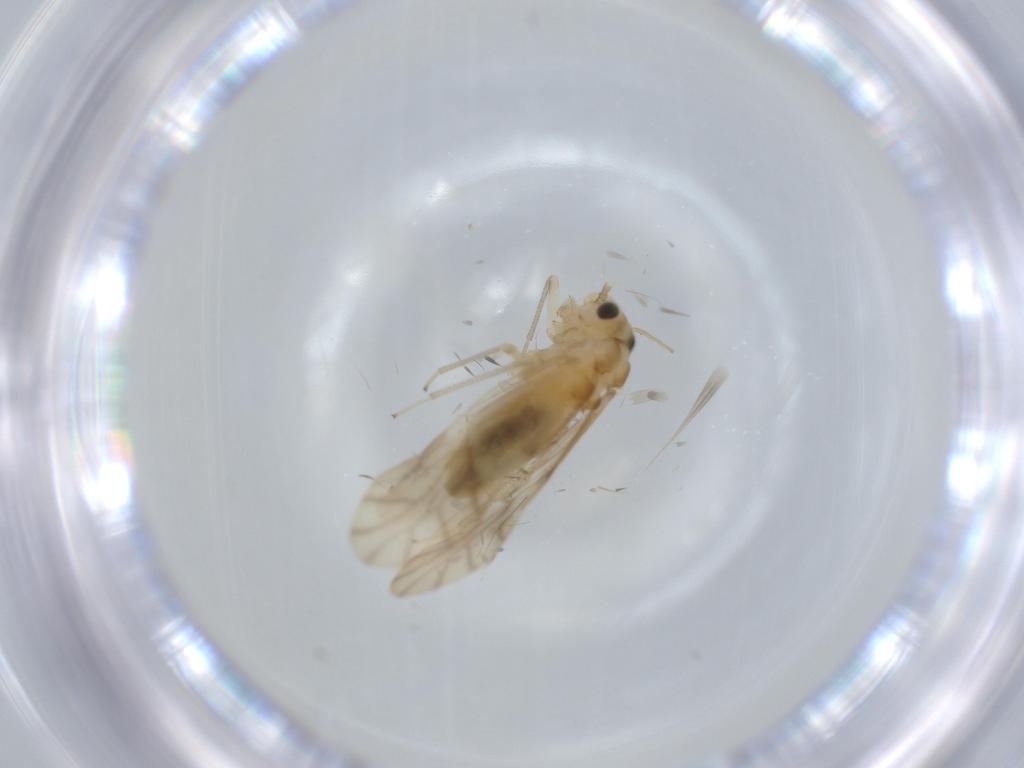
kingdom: Animalia
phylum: Arthropoda
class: Insecta
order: Psocodea
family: Caeciliusidae
